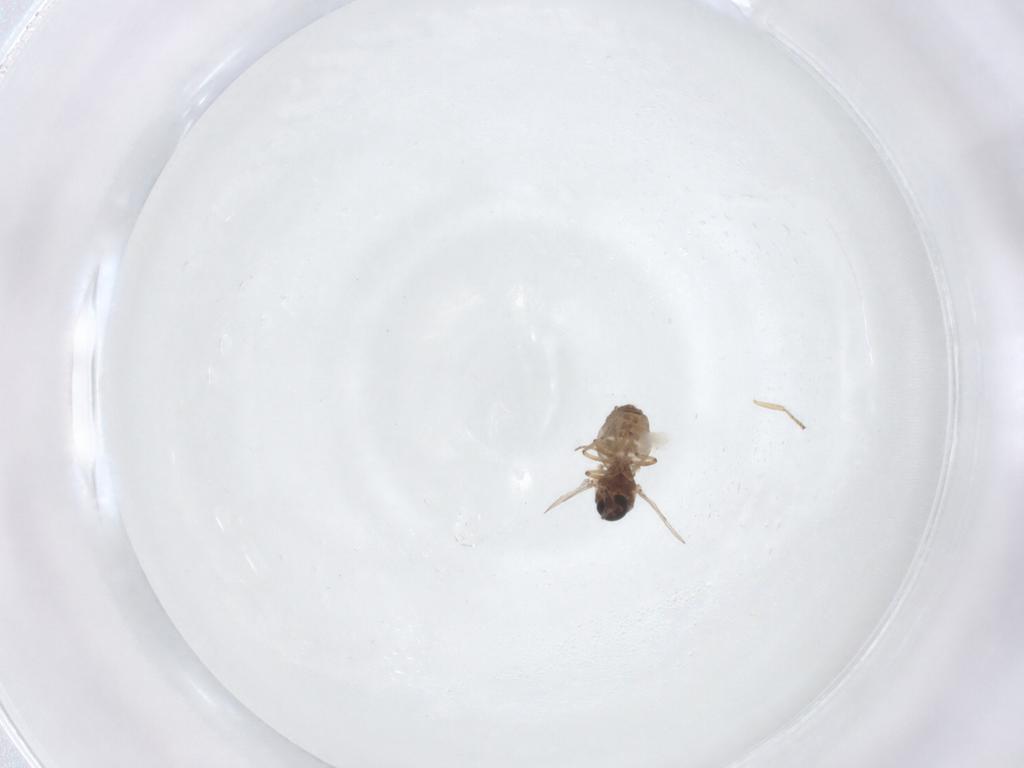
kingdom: Animalia
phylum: Arthropoda
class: Insecta
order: Diptera
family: Ceratopogonidae
